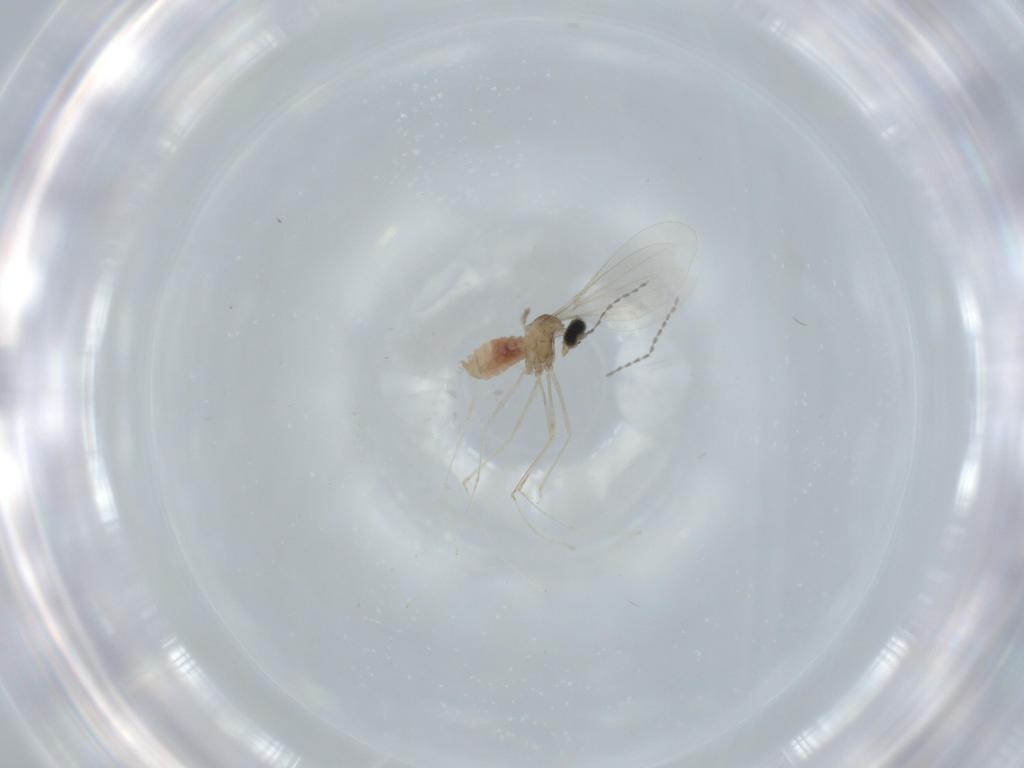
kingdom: Animalia
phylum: Arthropoda
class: Insecta
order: Diptera
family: Cecidomyiidae
